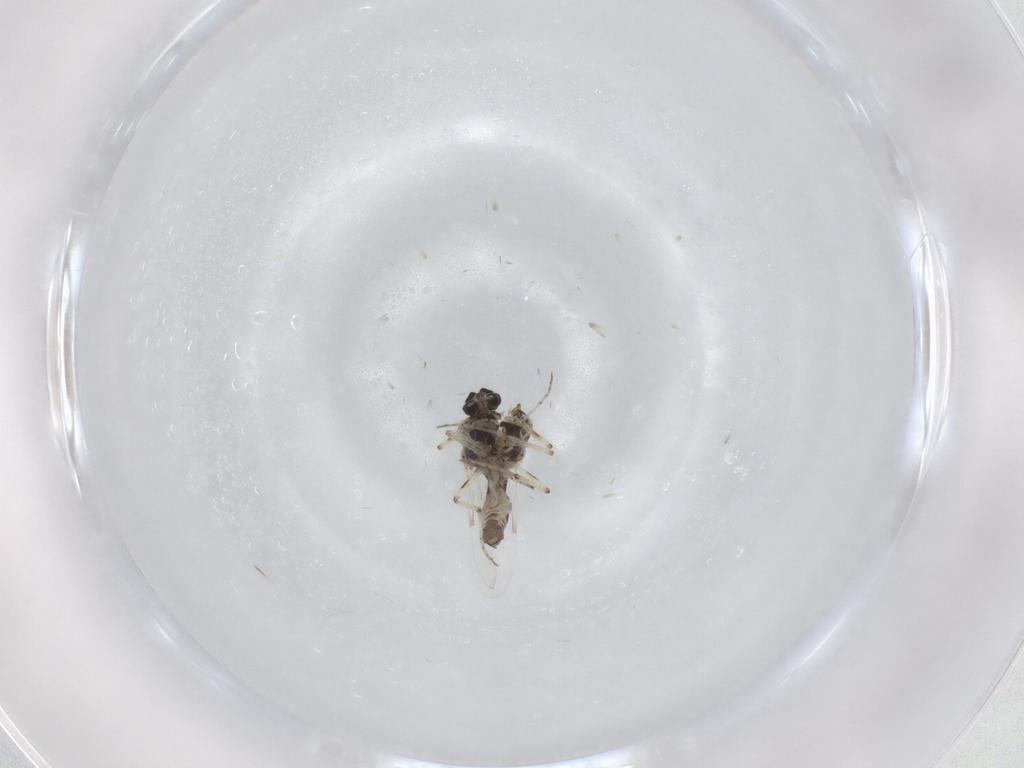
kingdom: Animalia
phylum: Arthropoda
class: Insecta
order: Diptera
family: Ceratopogonidae
